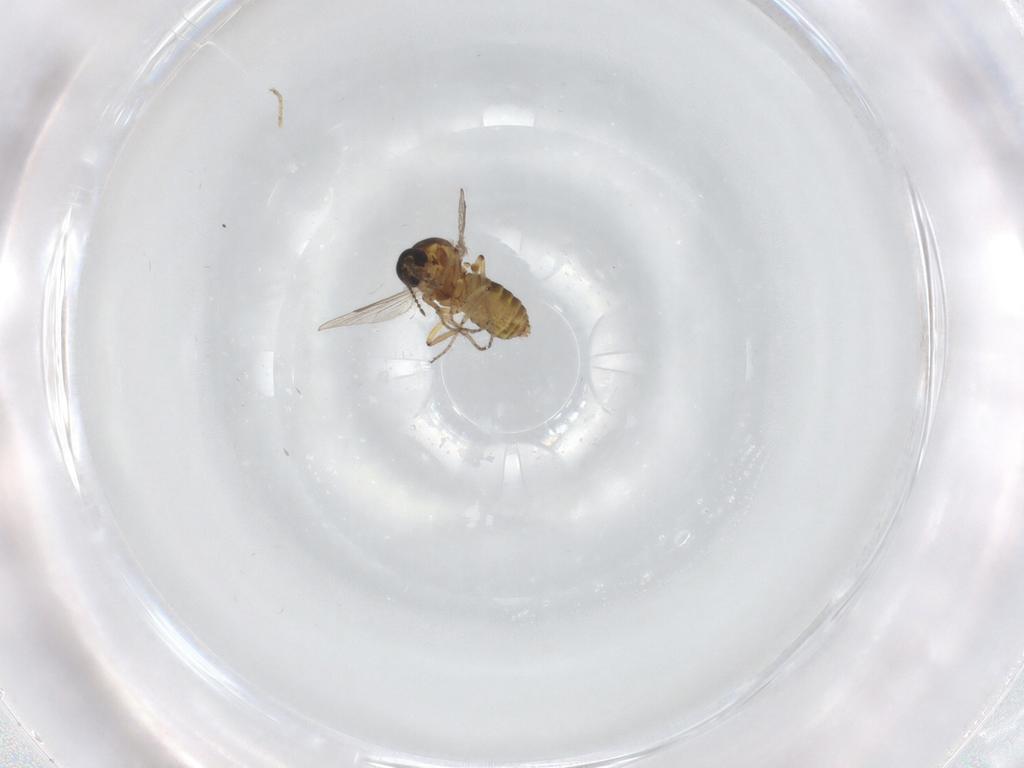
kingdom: Animalia
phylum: Arthropoda
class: Insecta
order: Diptera
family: Ceratopogonidae
